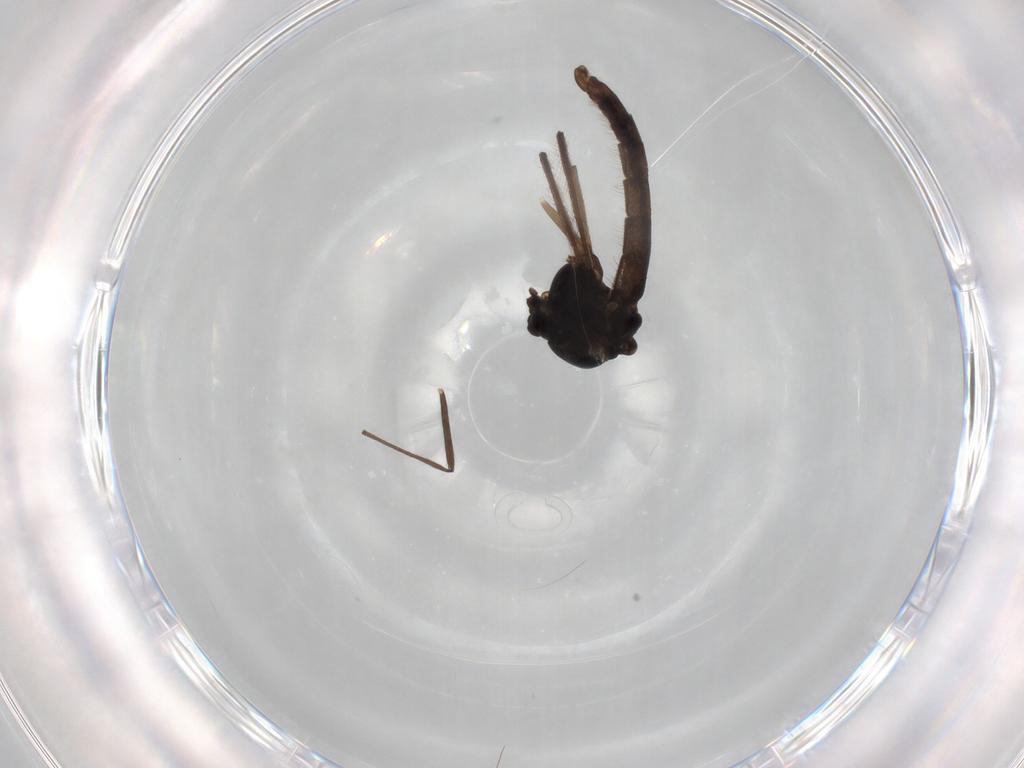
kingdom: Animalia
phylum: Arthropoda
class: Insecta
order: Diptera
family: Chironomidae
